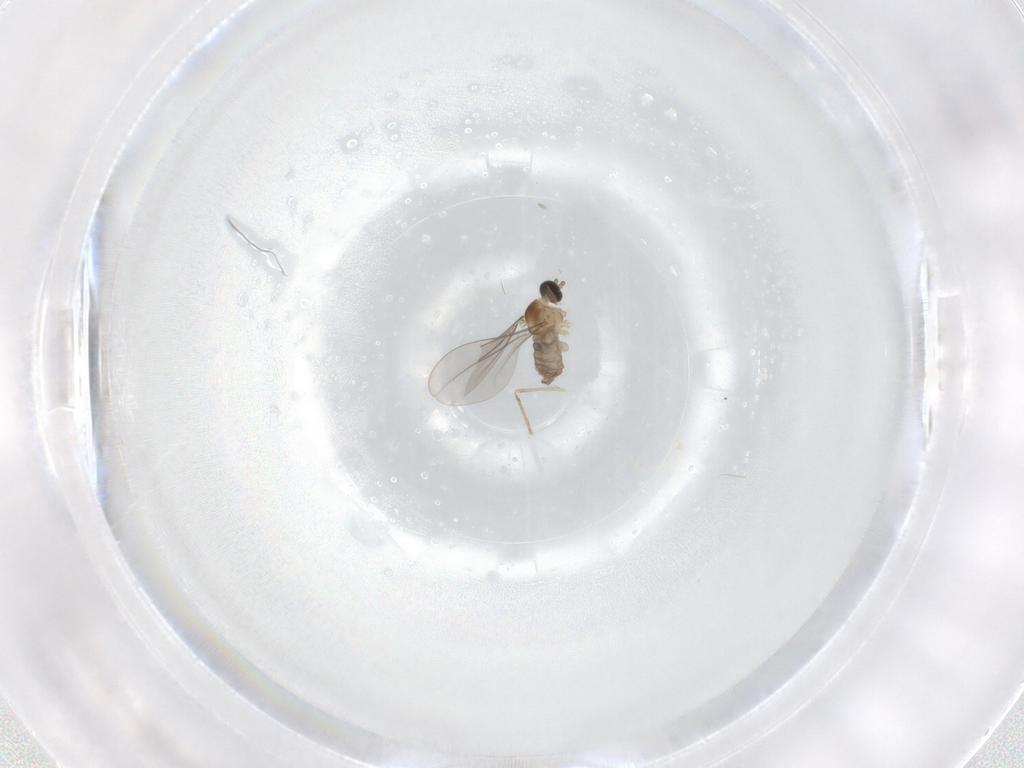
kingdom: Animalia
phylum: Arthropoda
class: Insecta
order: Diptera
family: Cecidomyiidae
